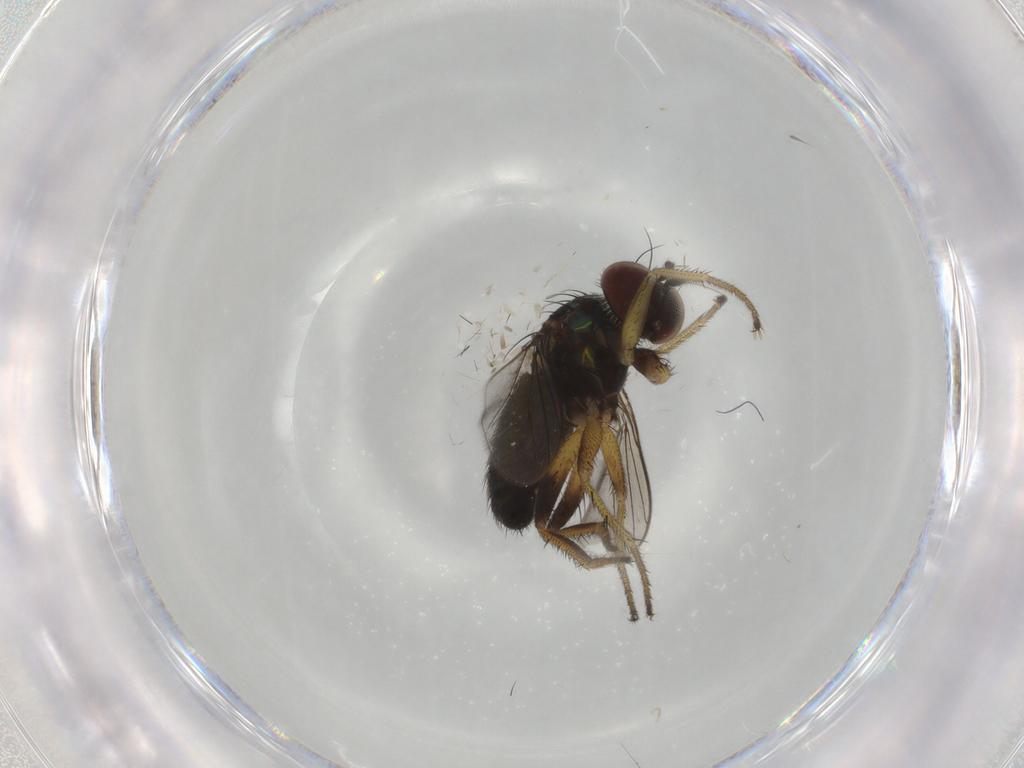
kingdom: Animalia
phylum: Arthropoda
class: Insecta
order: Diptera
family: Dolichopodidae
